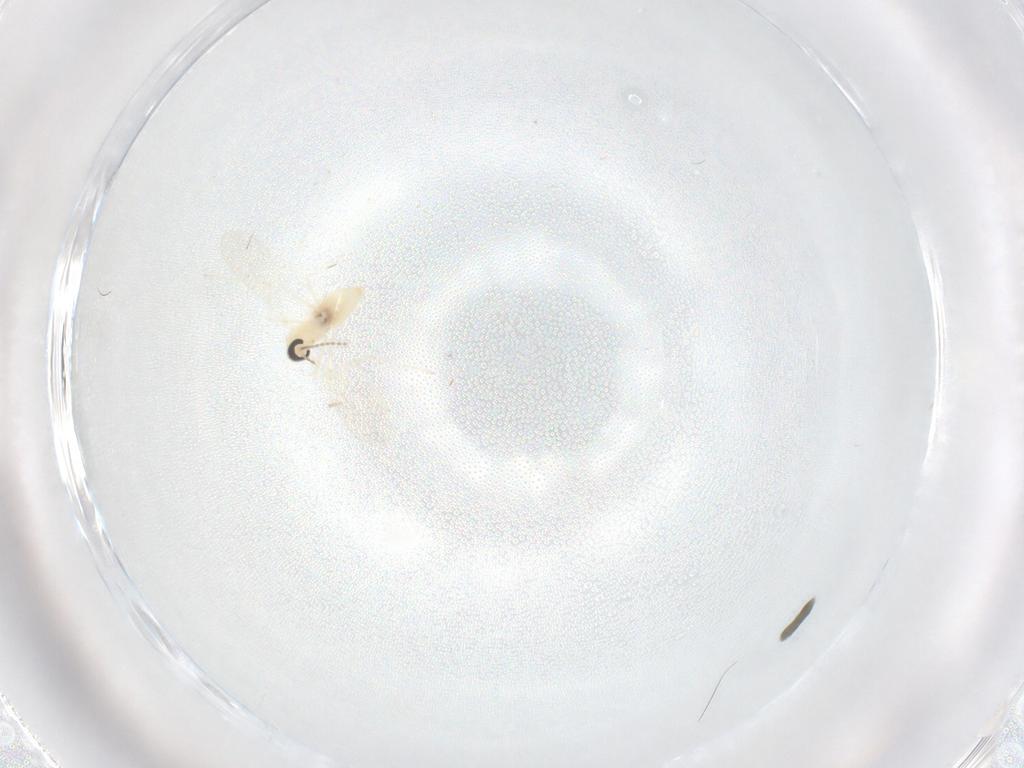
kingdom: Animalia
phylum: Arthropoda
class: Insecta
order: Diptera
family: Cecidomyiidae
